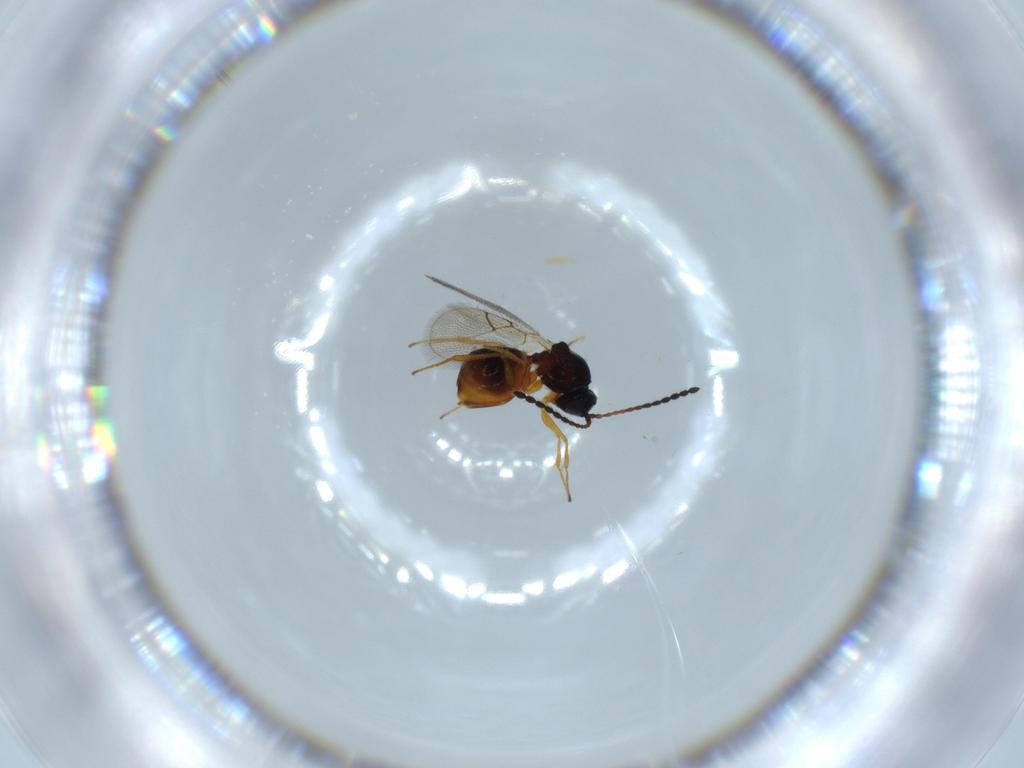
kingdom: Animalia
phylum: Arthropoda
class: Insecta
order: Hymenoptera
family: Figitidae
